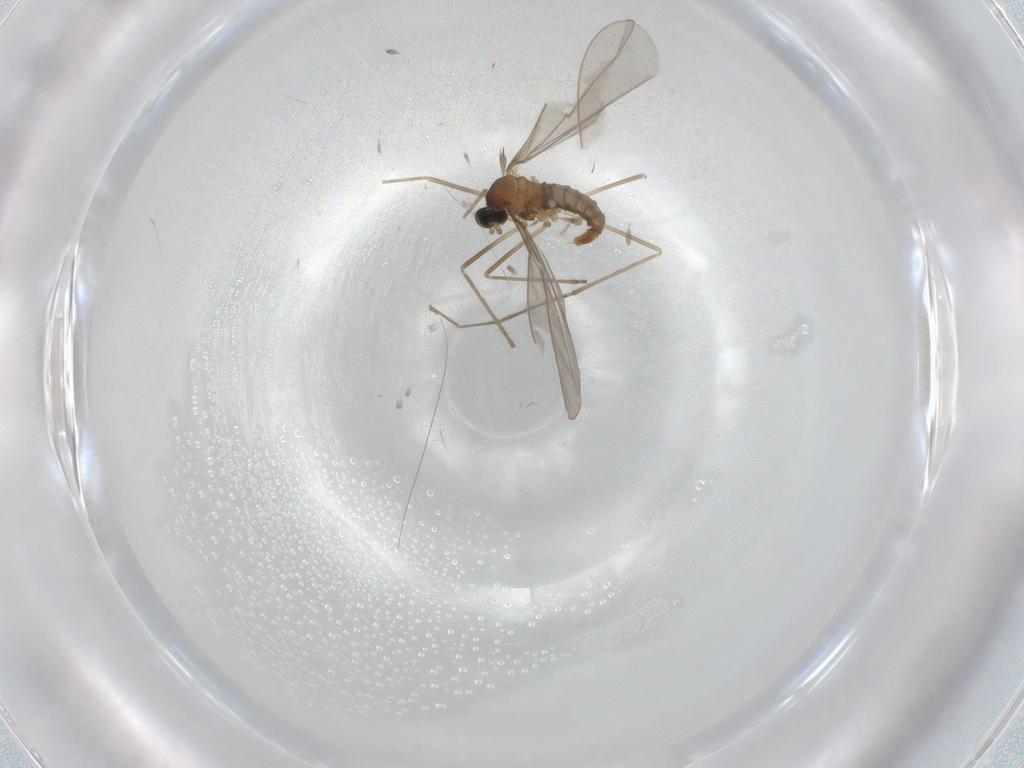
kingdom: Animalia
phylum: Arthropoda
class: Insecta
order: Diptera
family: Cecidomyiidae
